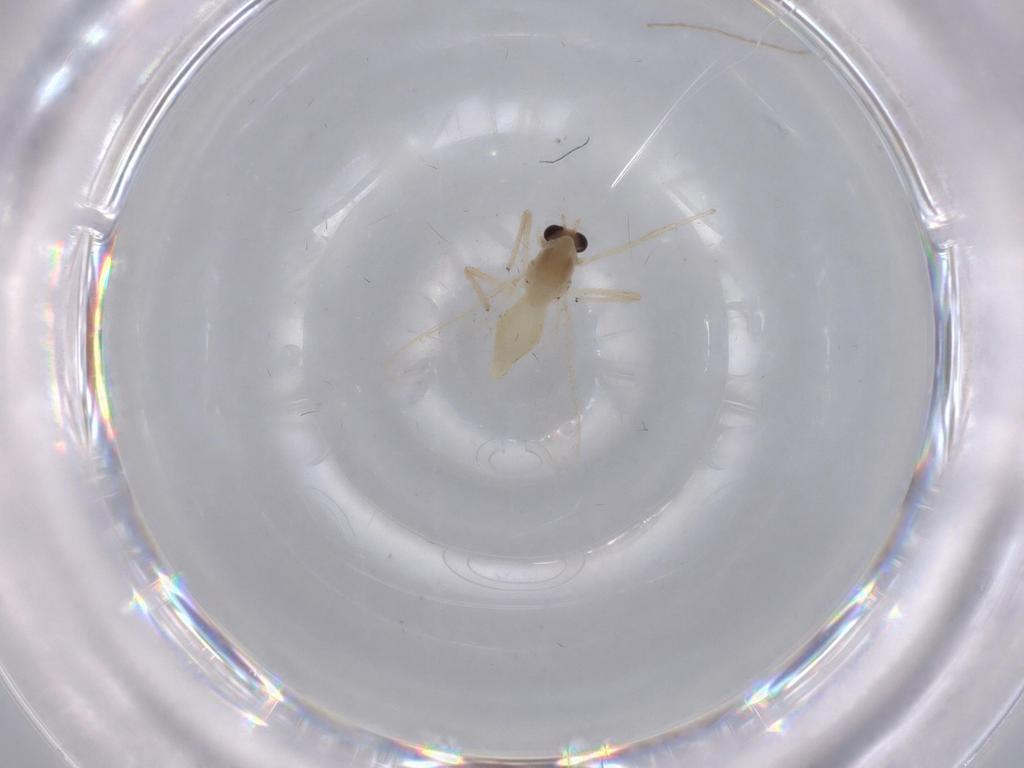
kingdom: Animalia
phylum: Arthropoda
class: Insecta
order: Diptera
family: Chironomidae
